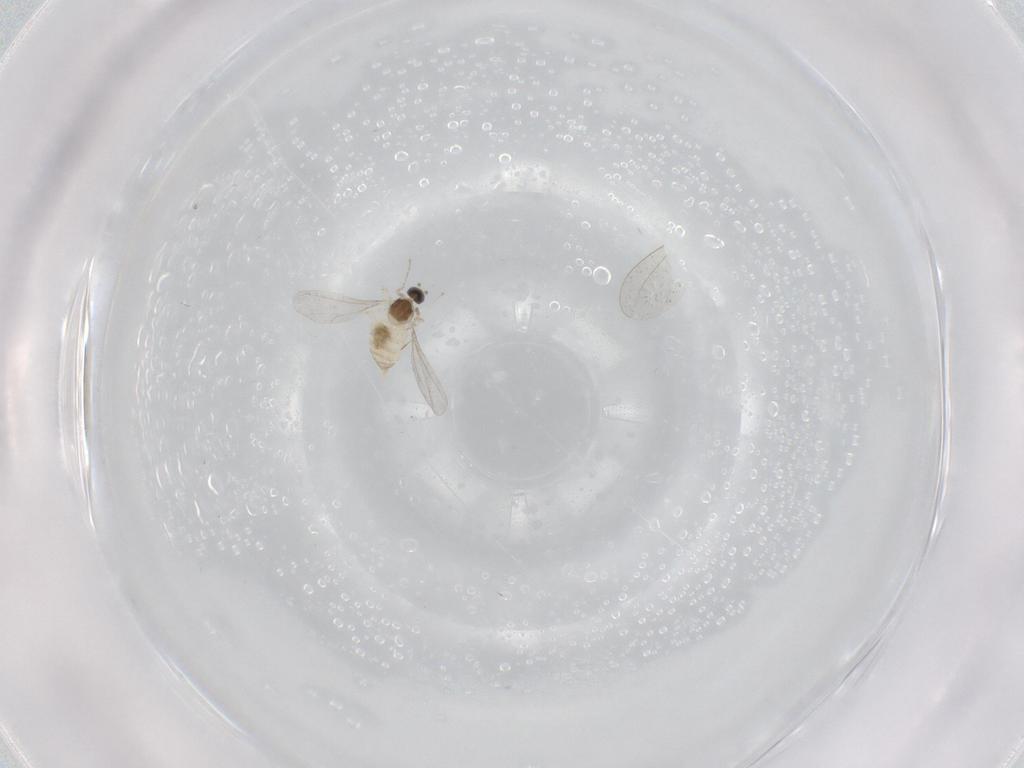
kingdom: Animalia
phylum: Arthropoda
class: Insecta
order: Diptera
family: Cecidomyiidae
